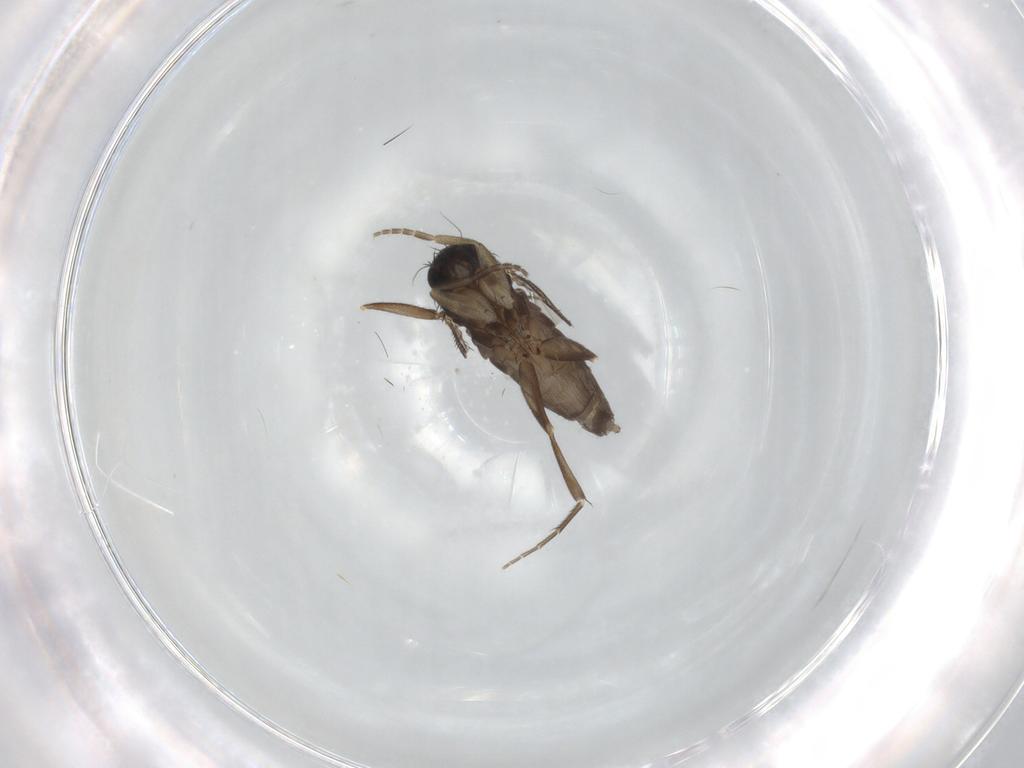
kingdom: Animalia
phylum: Arthropoda
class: Insecta
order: Diptera
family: Phoridae
